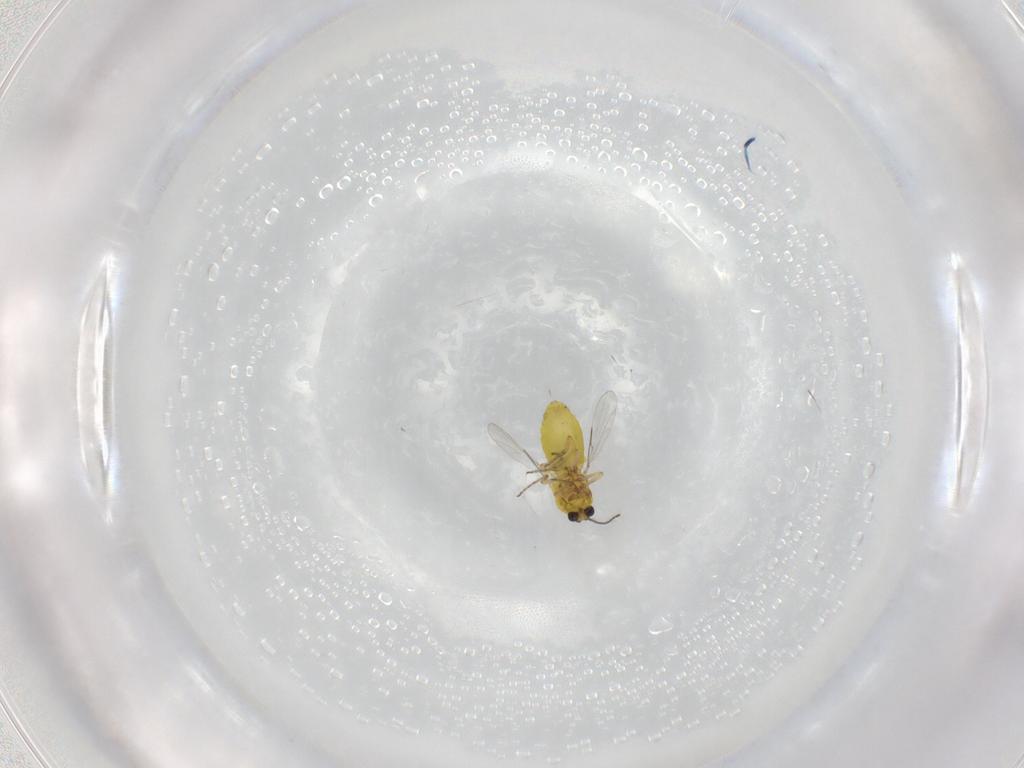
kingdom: Animalia
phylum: Arthropoda
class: Insecta
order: Diptera
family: Ceratopogonidae
